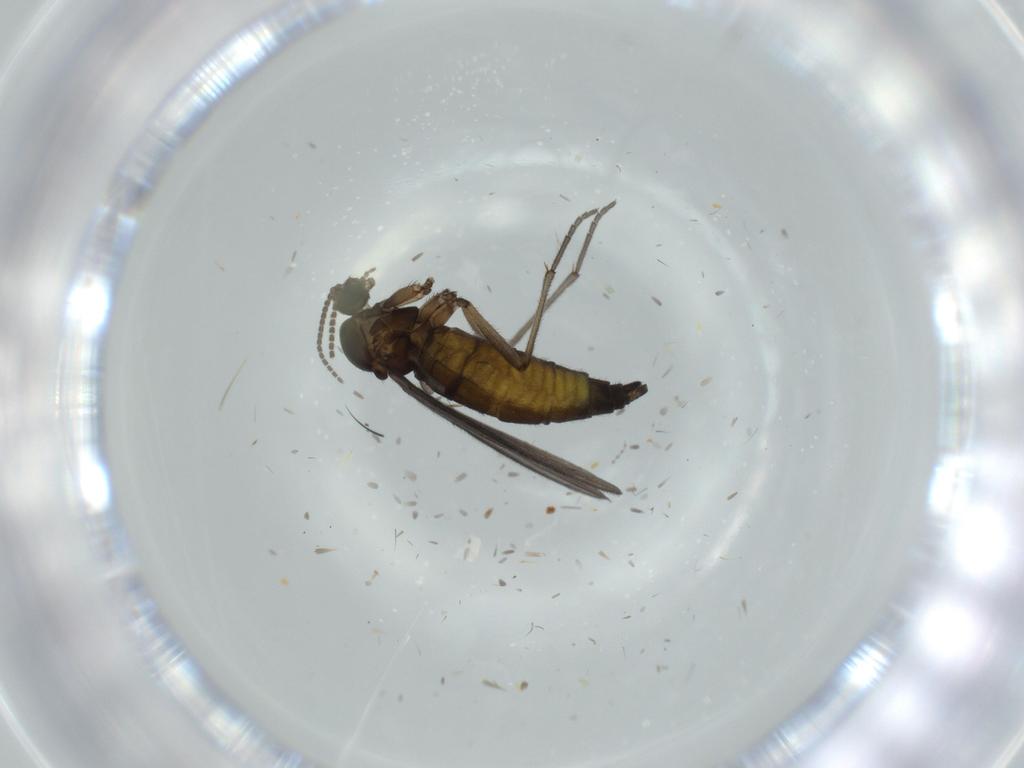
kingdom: Animalia
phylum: Arthropoda
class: Insecta
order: Diptera
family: Sciaridae
